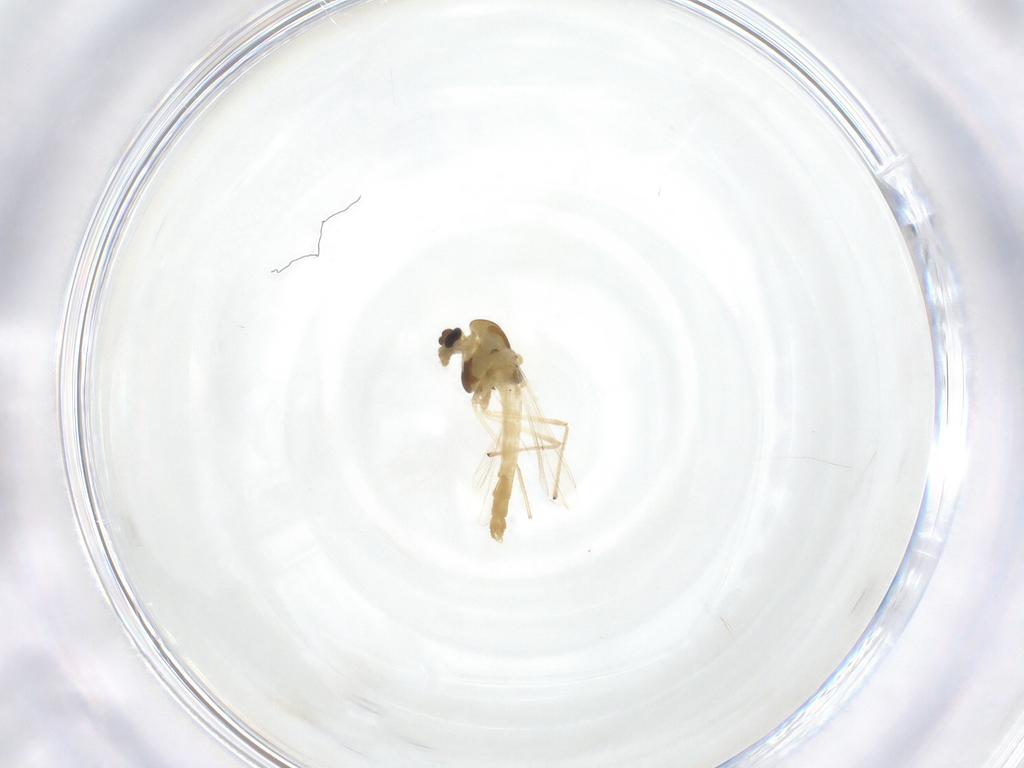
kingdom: Animalia
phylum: Arthropoda
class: Insecta
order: Diptera
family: Chironomidae
